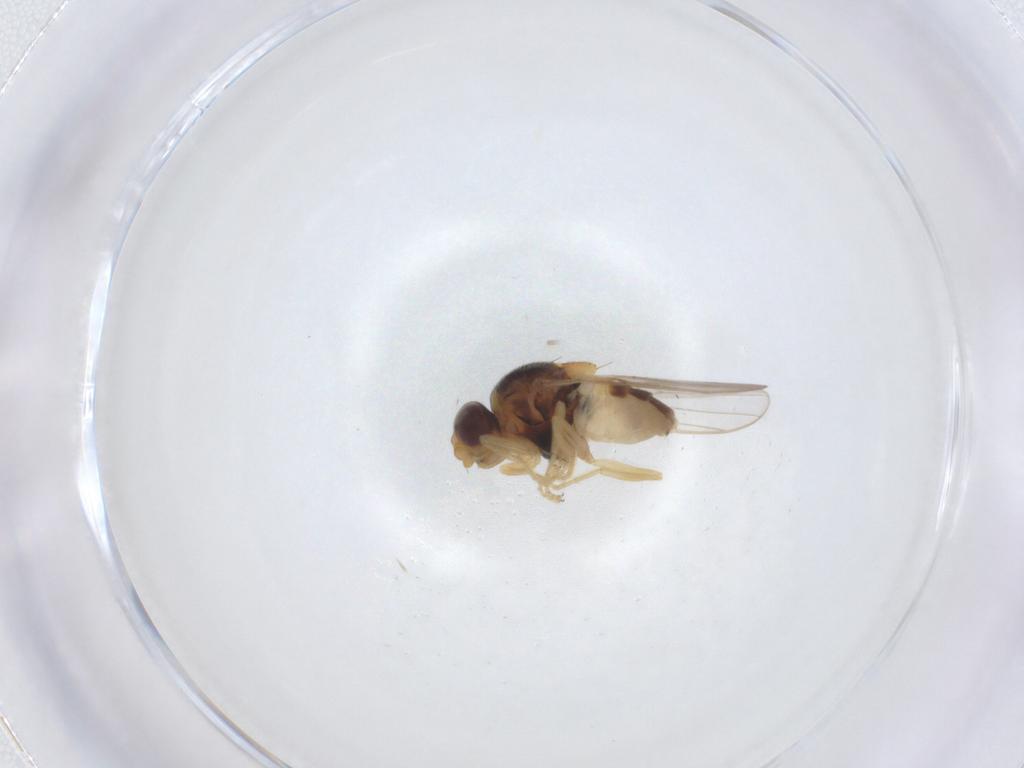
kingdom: Animalia
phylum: Arthropoda
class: Insecta
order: Diptera
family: Chloropidae
